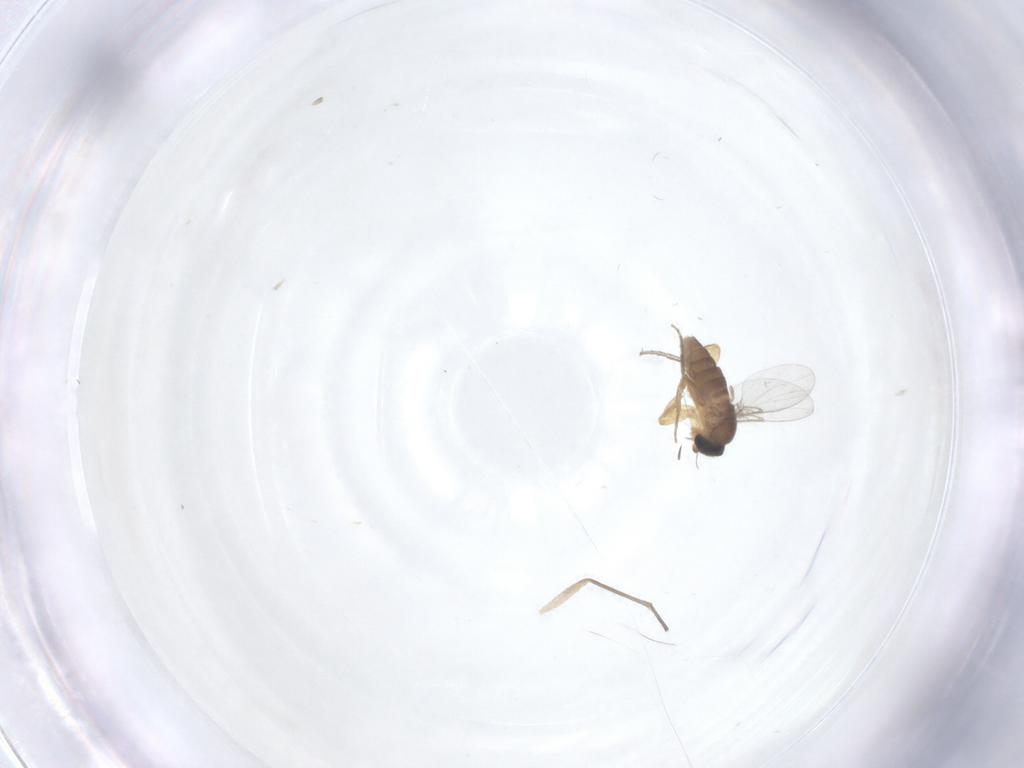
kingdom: Animalia
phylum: Arthropoda
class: Insecta
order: Diptera
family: Phoridae
